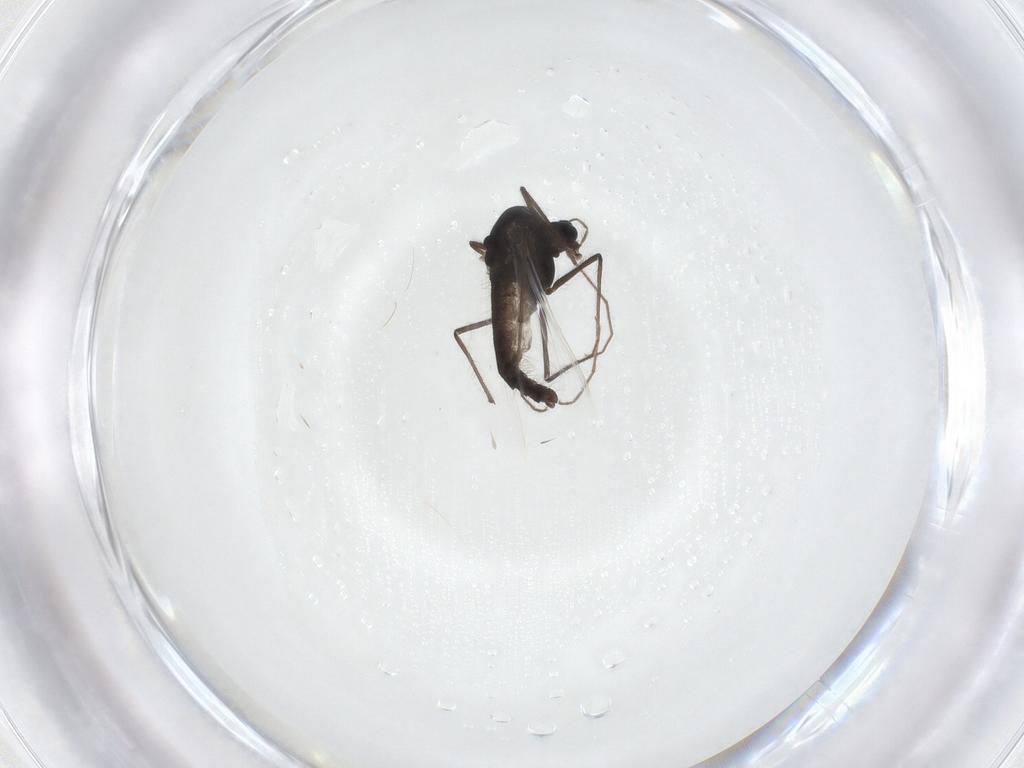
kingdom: Animalia
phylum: Arthropoda
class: Insecta
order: Diptera
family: Chironomidae
